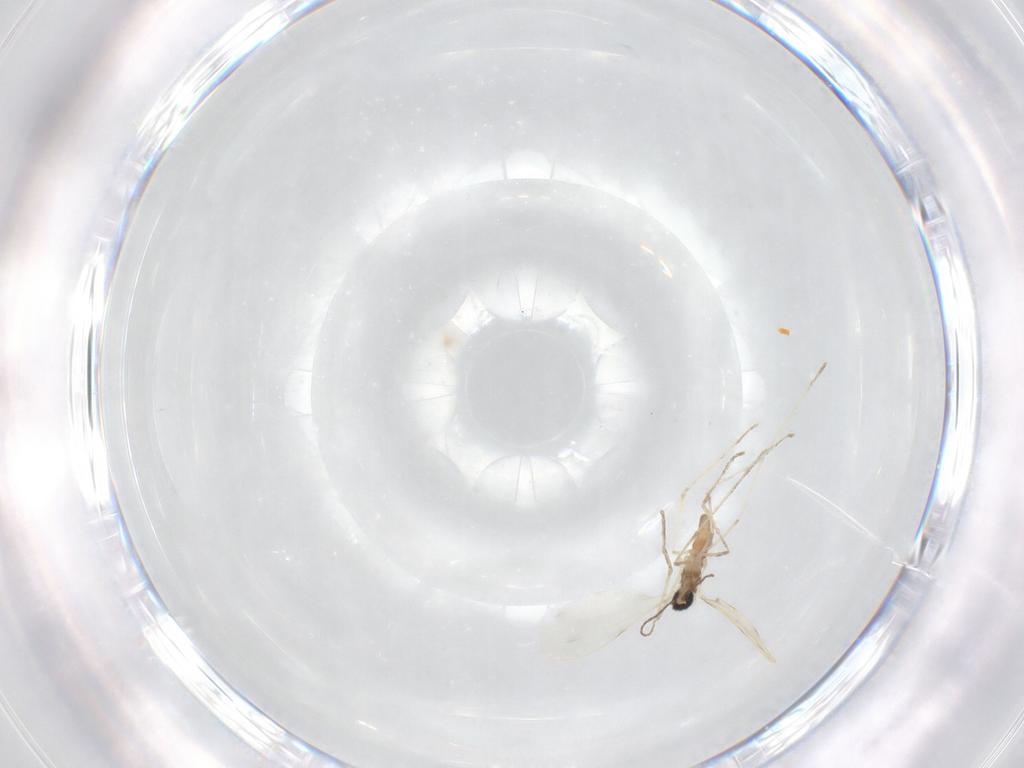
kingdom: Animalia
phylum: Arthropoda
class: Insecta
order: Diptera
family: Cecidomyiidae
